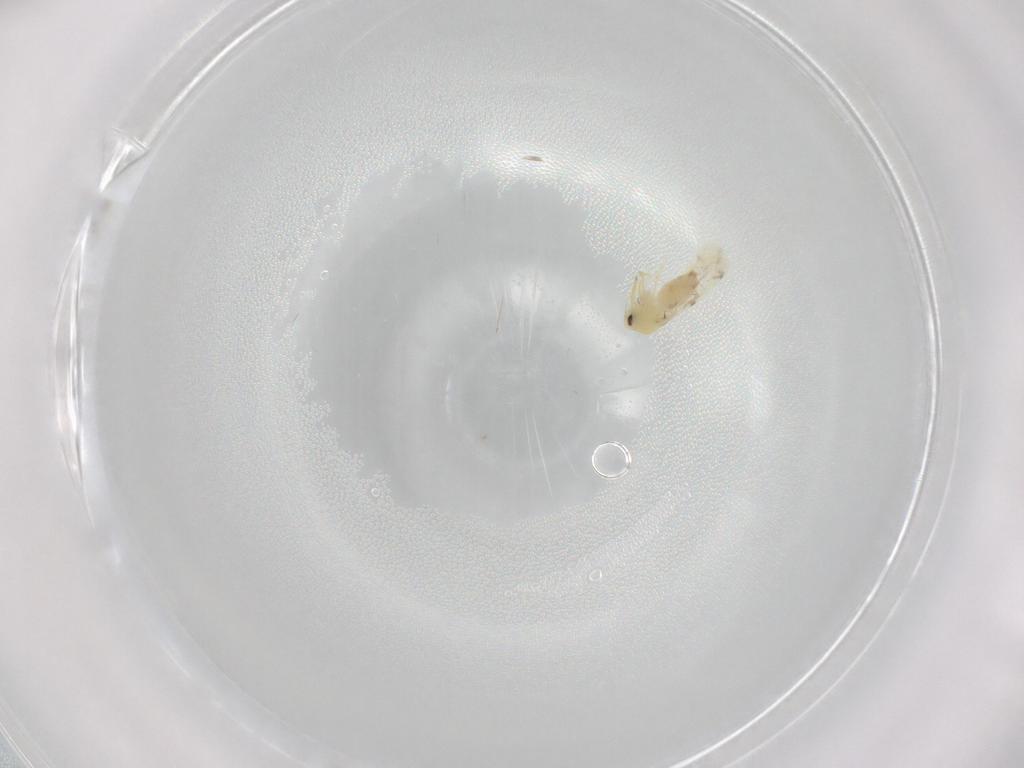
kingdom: Animalia
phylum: Arthropoda
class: Insecta
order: Hemiptera
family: Aleyrodidae
